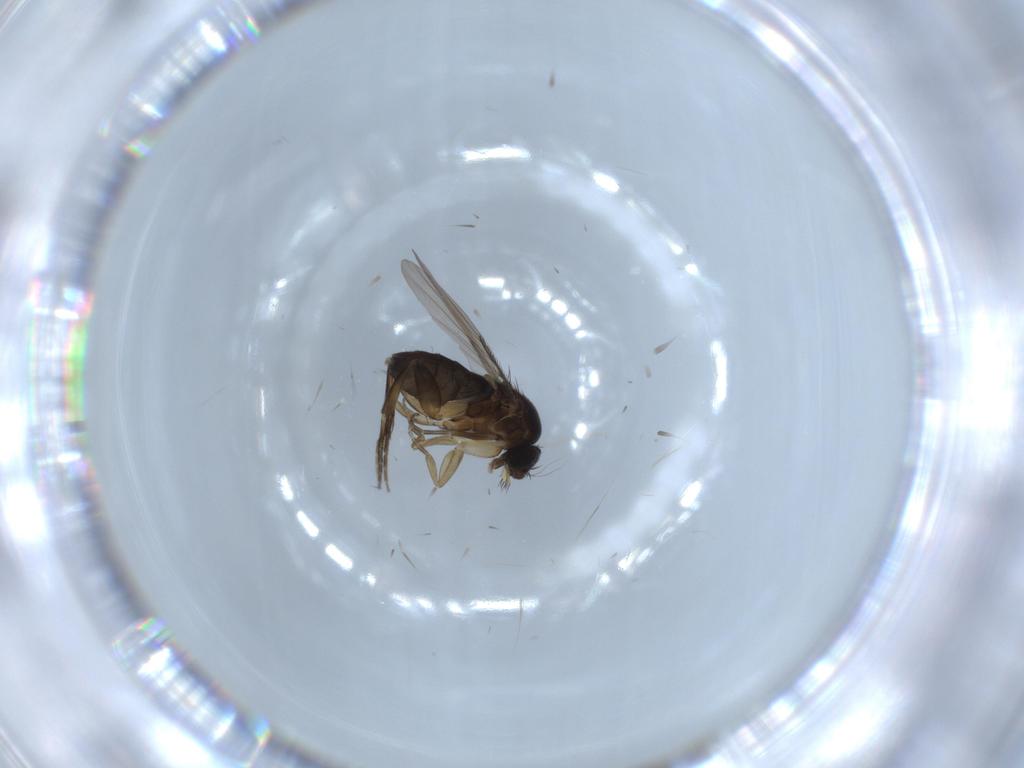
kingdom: Animalia
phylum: Arthropoda
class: Insecta
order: Diptera
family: Phoridae
